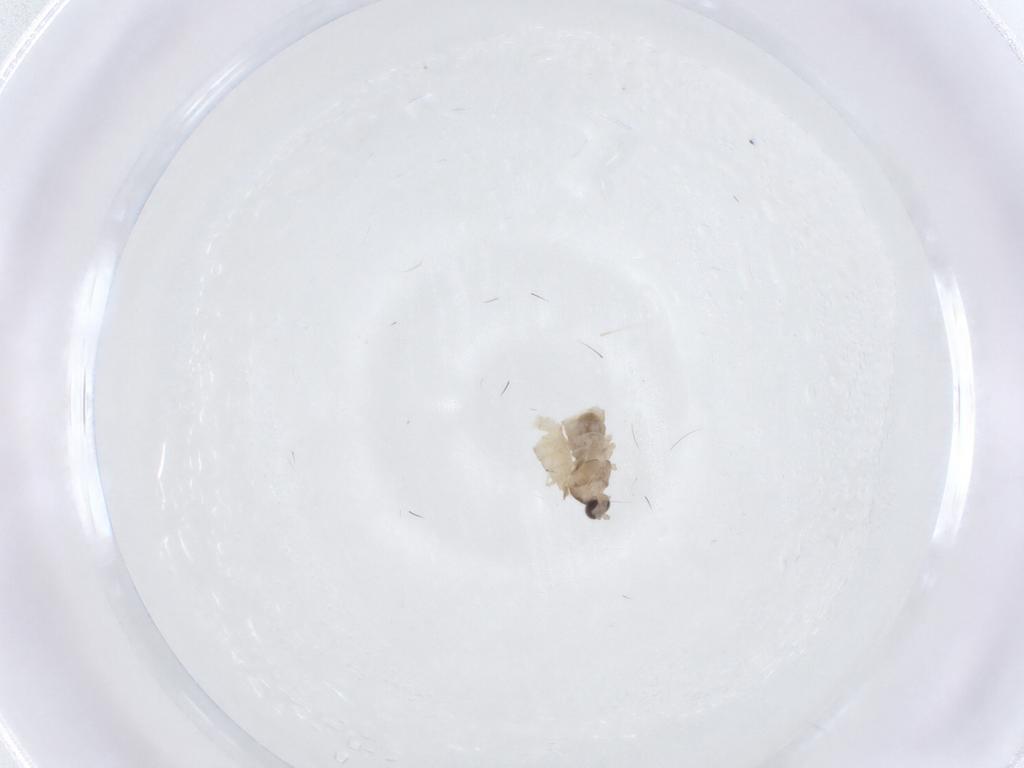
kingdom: Animalia
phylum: Arthropoda
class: Insecta
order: Diptera
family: Cecidomyiidae
